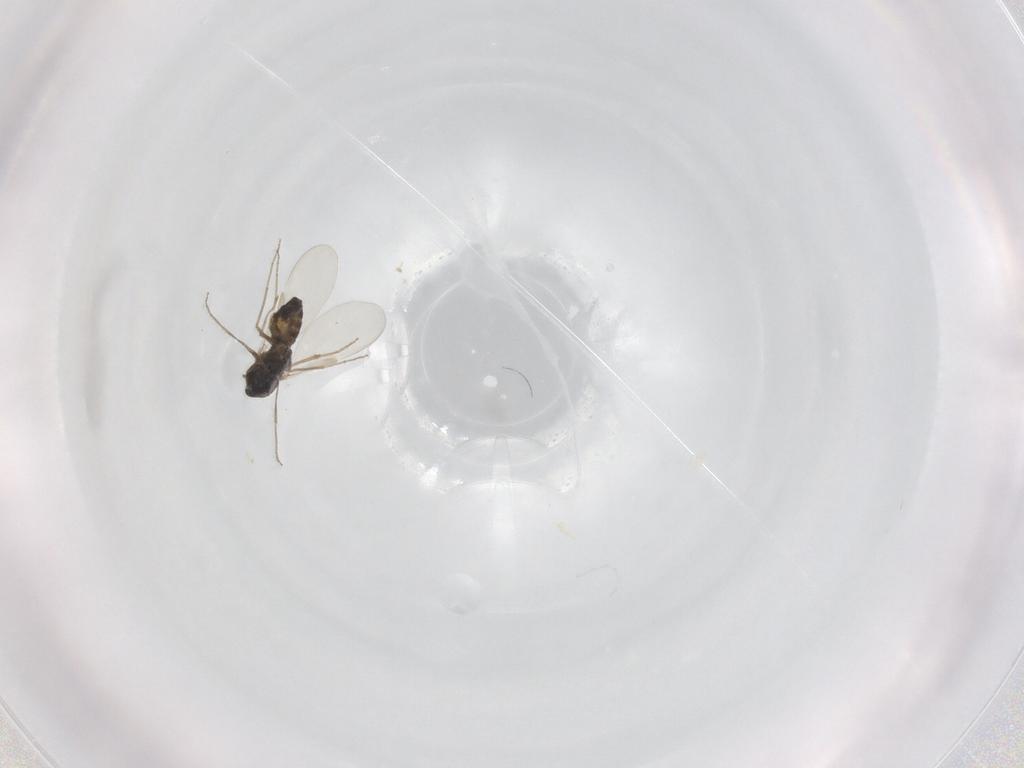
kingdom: Animalia
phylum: Arthropoda
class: Insecta
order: Diptera
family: Chironomidae
